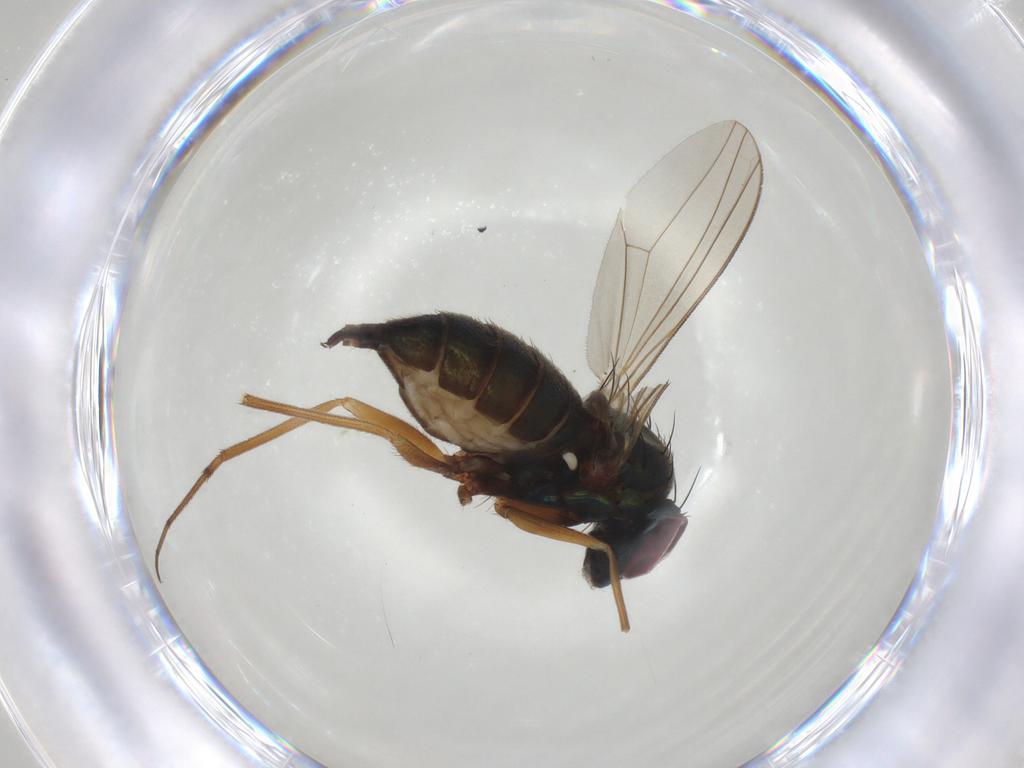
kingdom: Animalia
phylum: Arthropoda
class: Insecta
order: Diptera
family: Dolichopodidae
